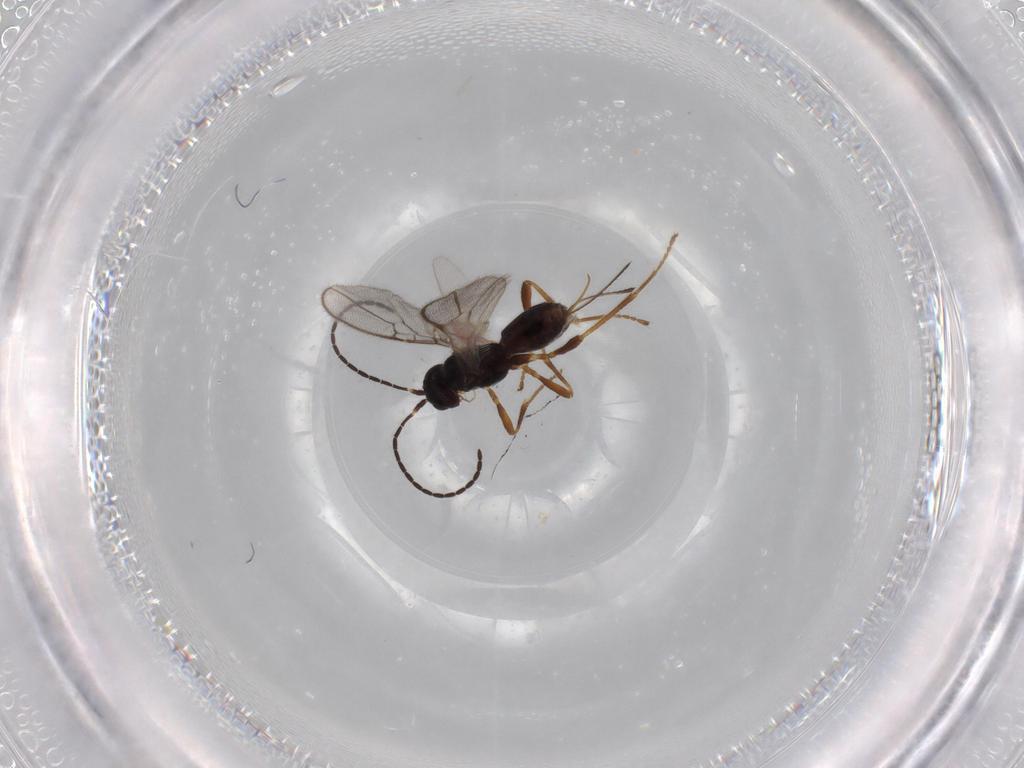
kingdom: Animalia
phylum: Arthropoda
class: Insecta
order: Hymenoptera
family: Braconidae
